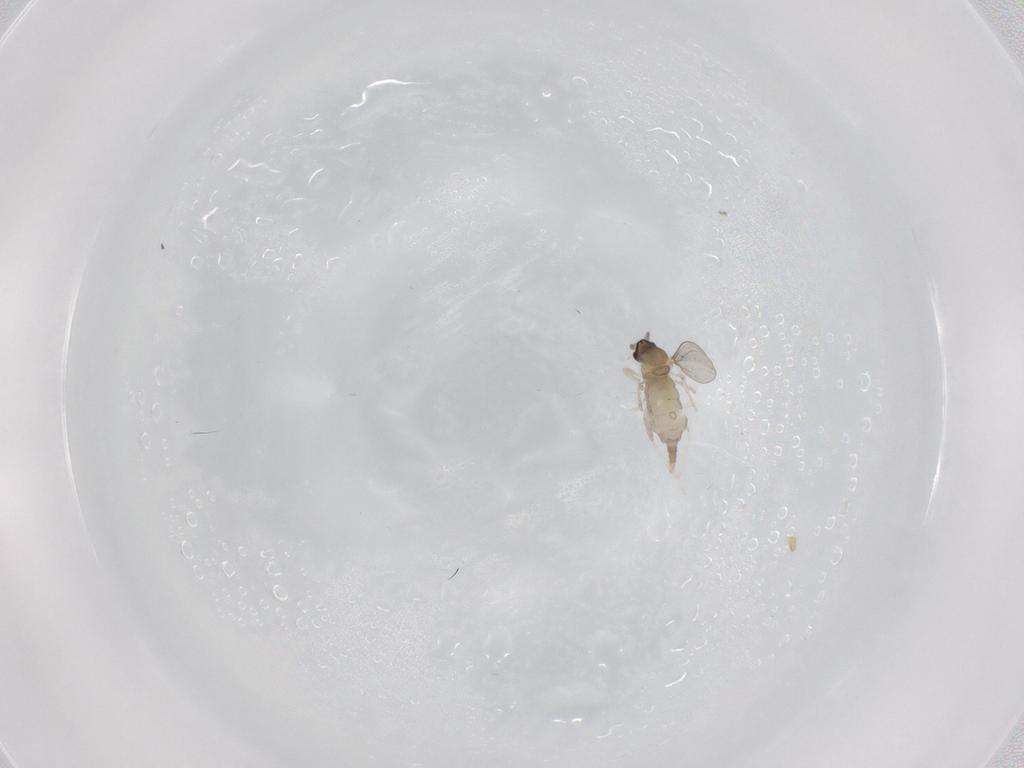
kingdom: Animalia
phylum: Arthropoda
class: Insecta
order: Diptera
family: Cecidomyiidae
